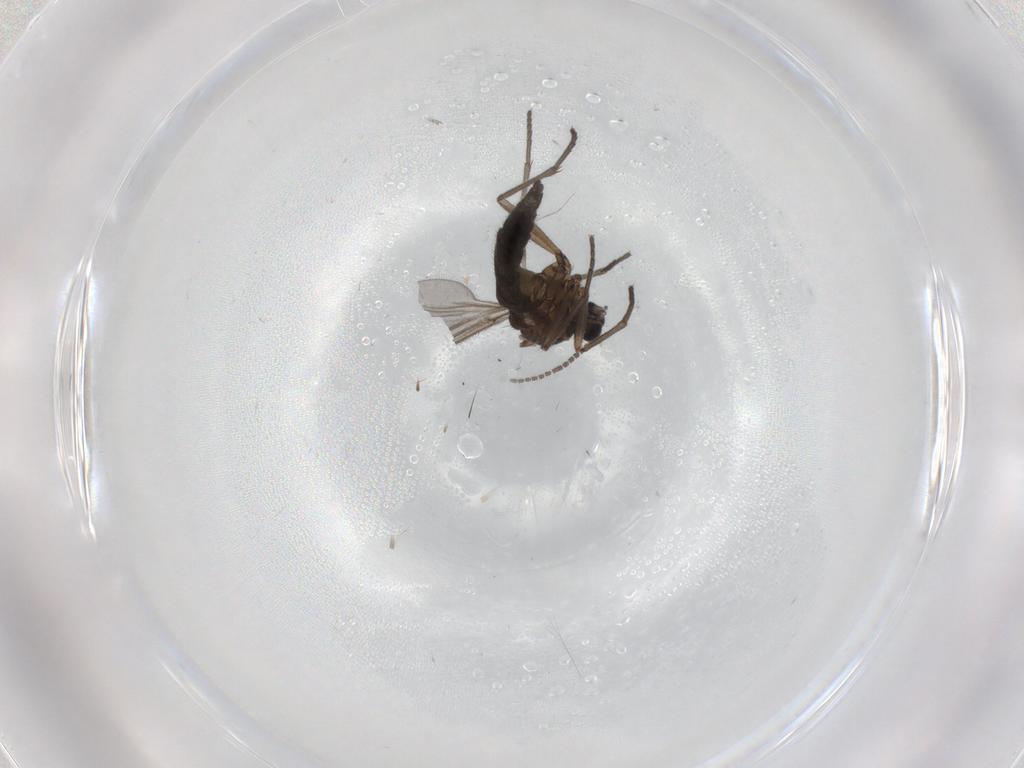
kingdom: Animalia
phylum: Arthropoda
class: Insecta
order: Diptera
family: Sciaridae
